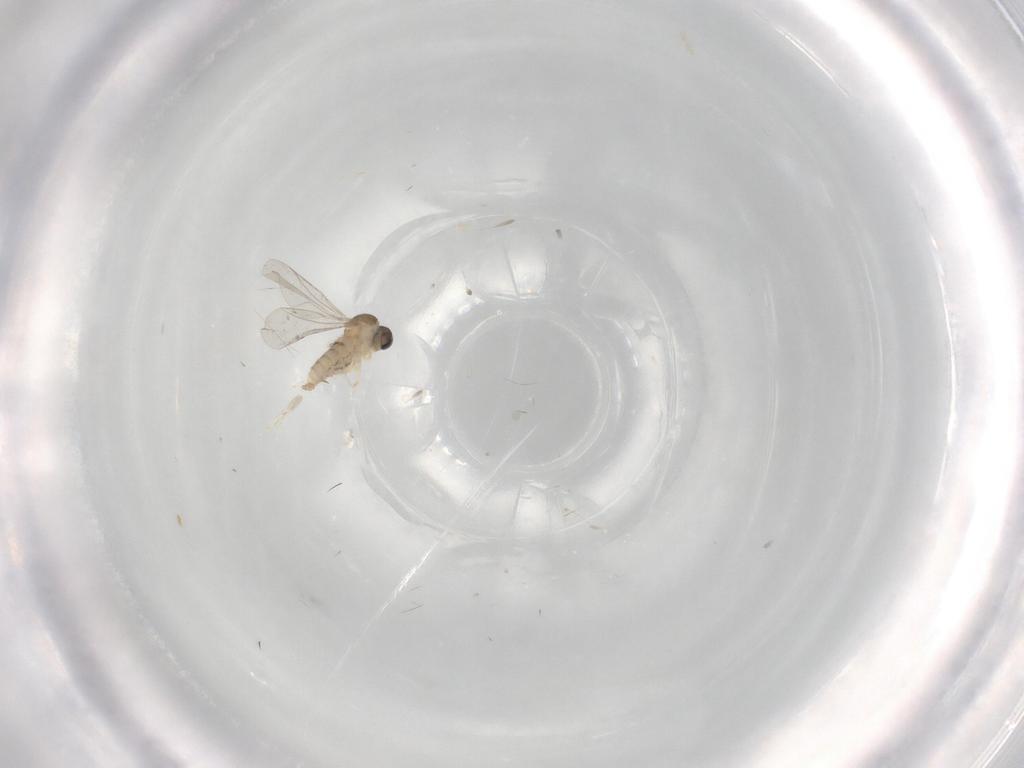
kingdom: Animalia
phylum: Arthropoda
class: Insecta
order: Diptera
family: Cecidomyiidae
